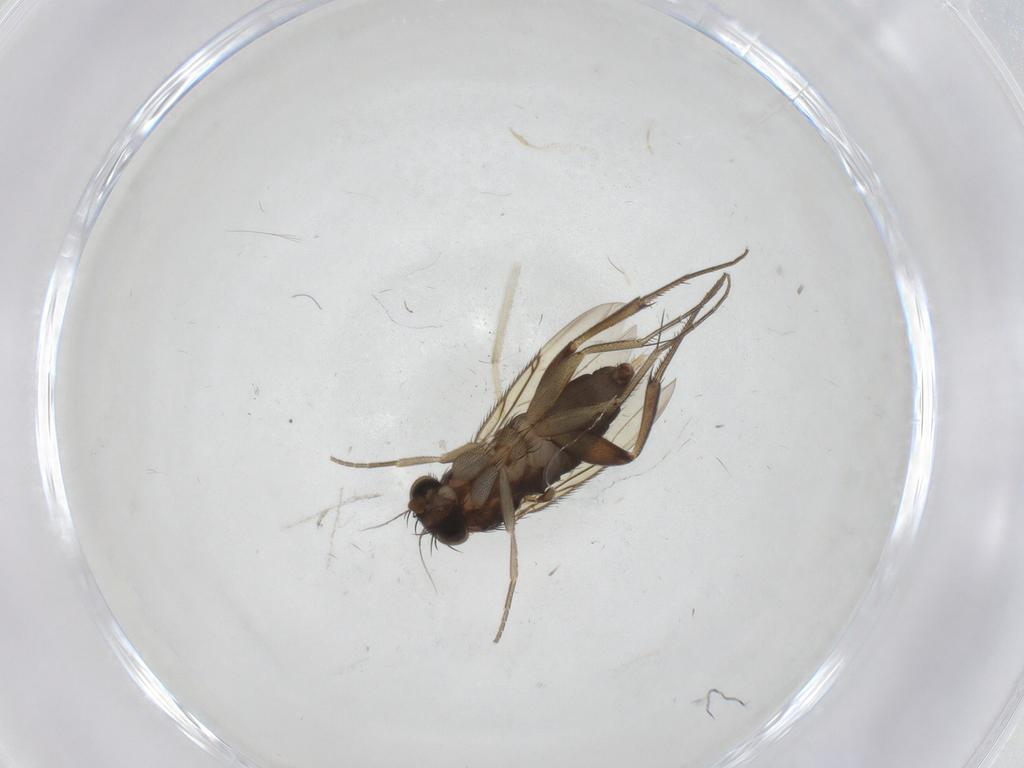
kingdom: Animalia
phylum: Arthropoda
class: Insecta
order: Diptera
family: Phoridae
